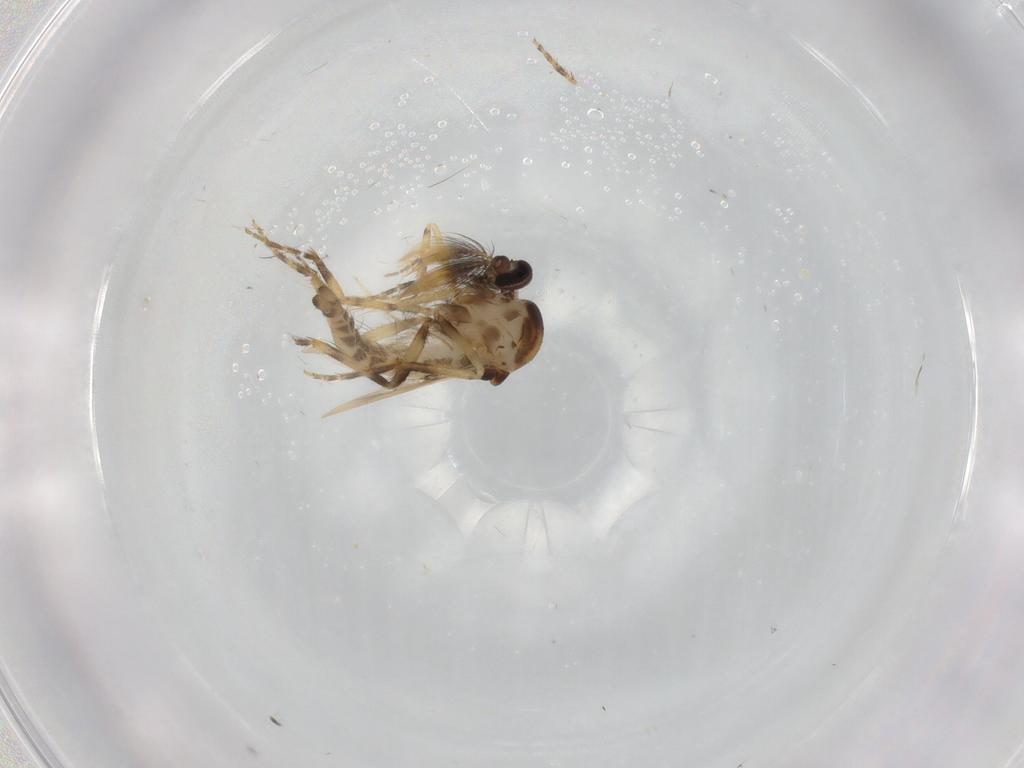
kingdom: Animalia
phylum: Arthropoda
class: Insecta
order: Diptera
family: Ceratopogonidae
